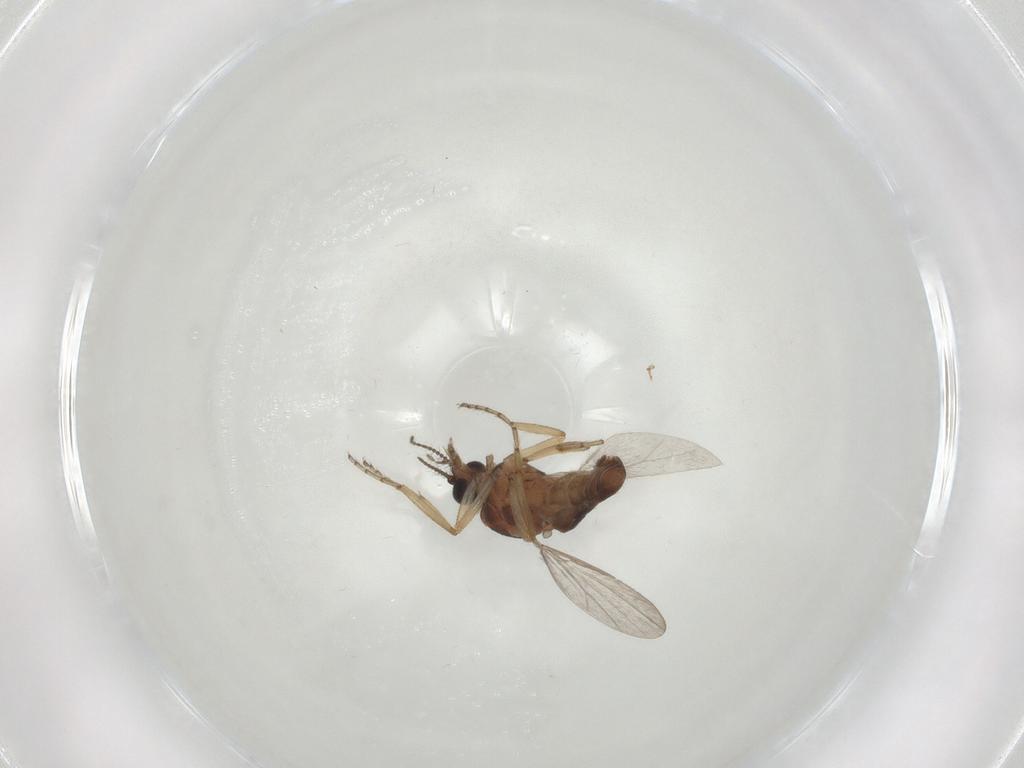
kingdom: Animalia
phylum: Arthropoda
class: Insecta
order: Diptera
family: Ceratopogonidae
